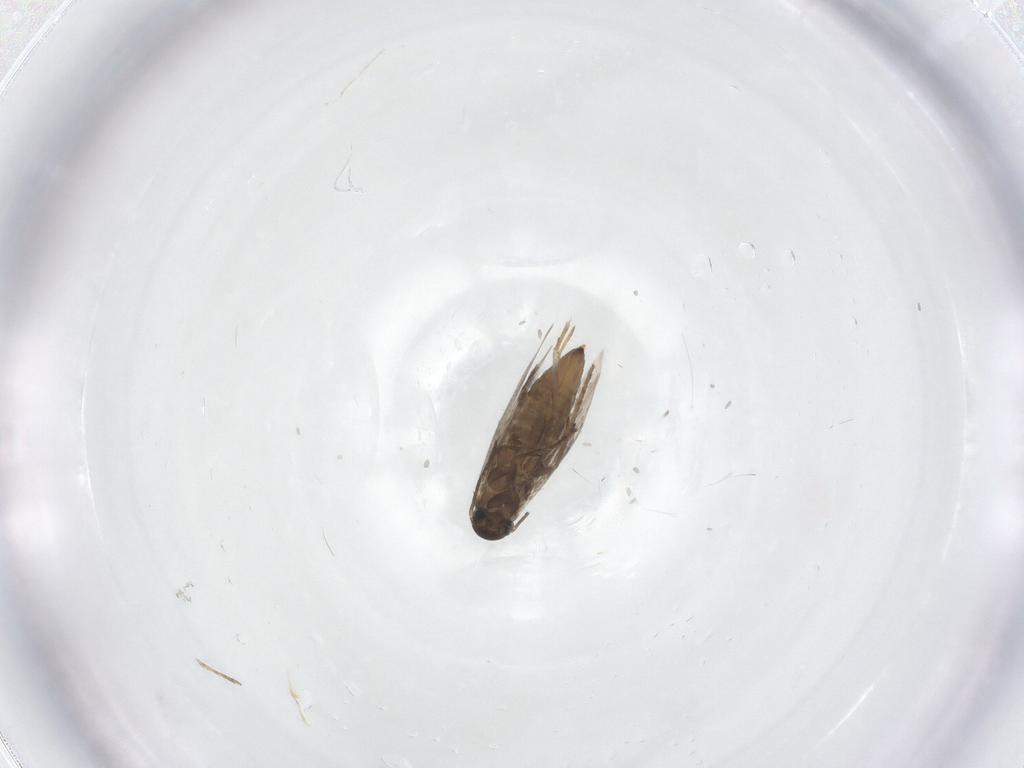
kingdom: Animalia
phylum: Arthropoda
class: Insecta
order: Lepidoptera
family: Heliozelidae
